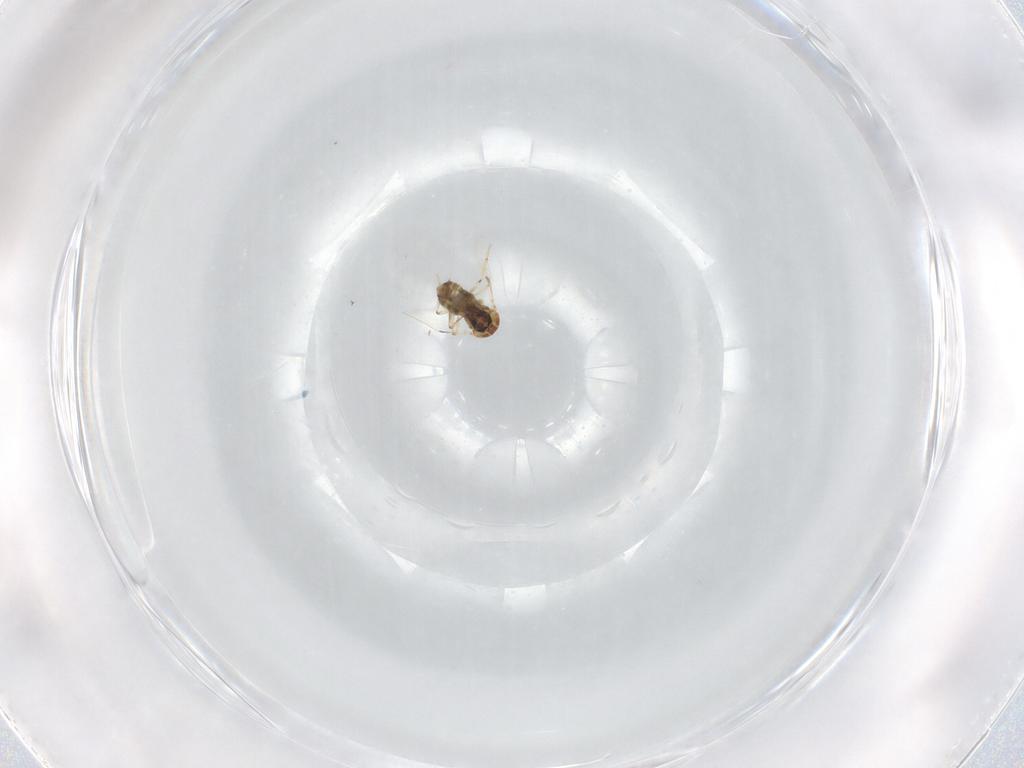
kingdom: Animalia
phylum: Arthropoda
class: Insecta
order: Diptera
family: Ceratopogonidae
